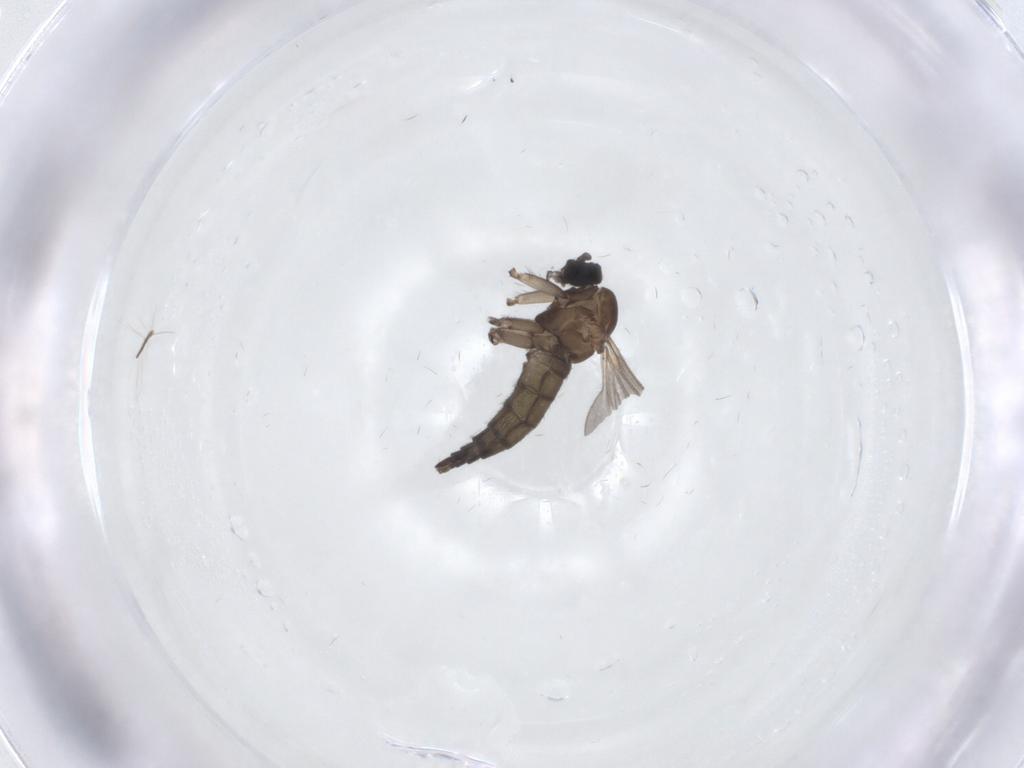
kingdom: Animalia
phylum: Arthropoda
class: Insecta
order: Diptera
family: Sciaridae
